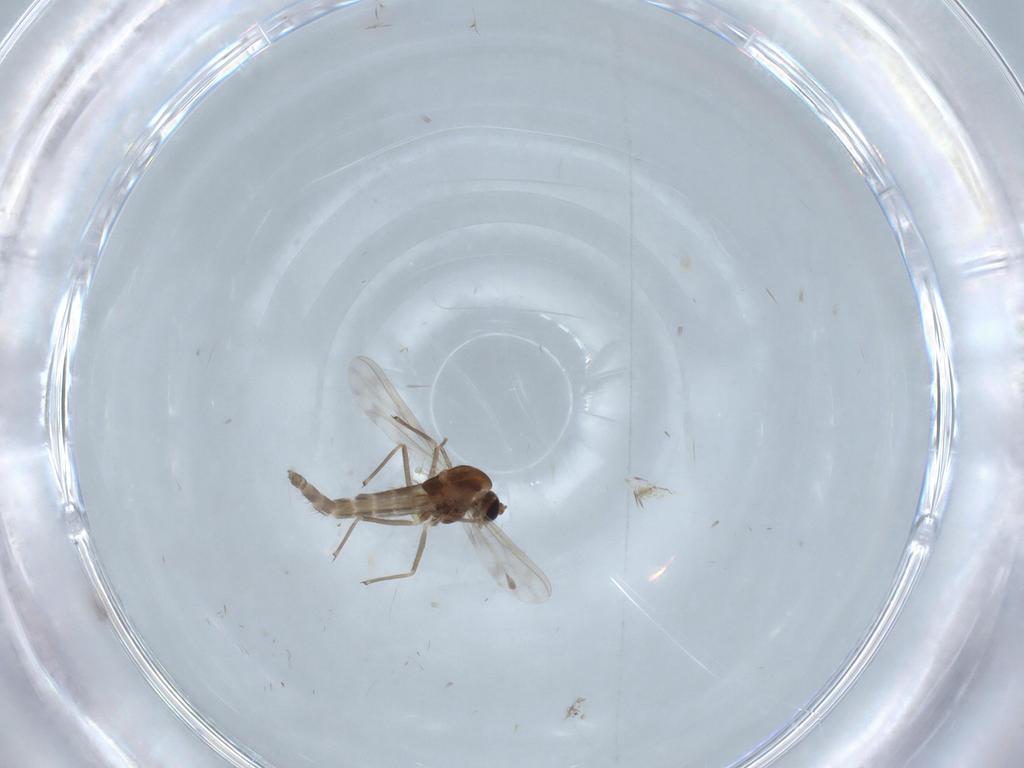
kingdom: Animalia
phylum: Arthropoda
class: Insecta
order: Diptera
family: Chironomidae
